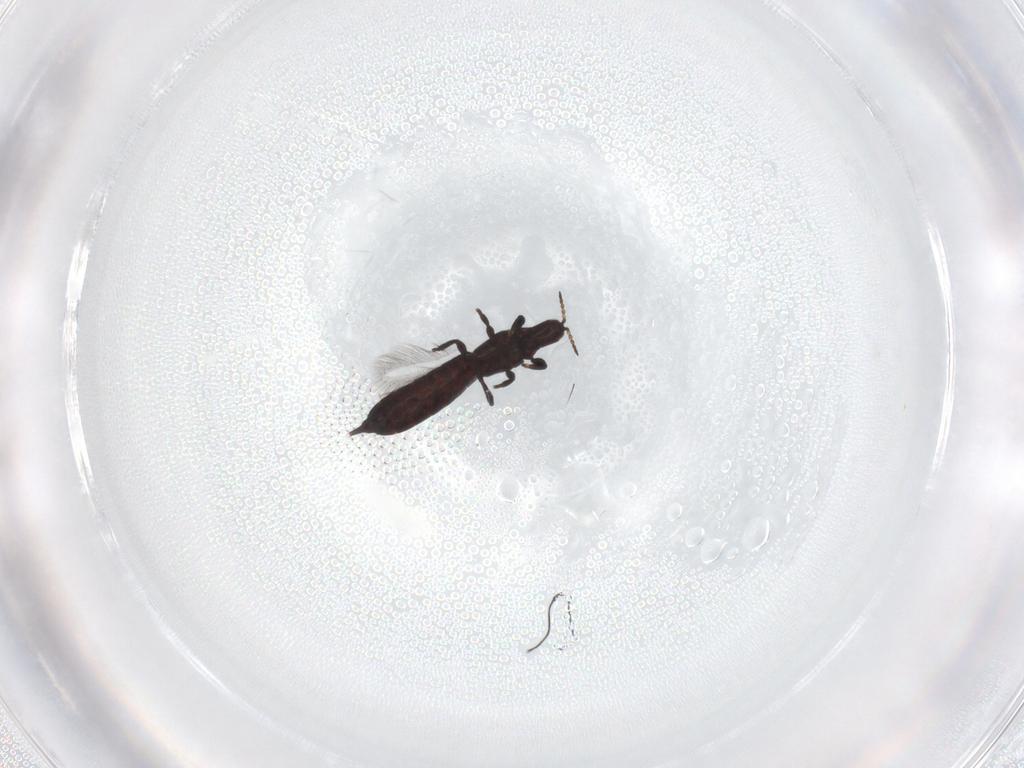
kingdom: Animalia
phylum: Arthropoda
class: Insecta
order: Thysanoptera
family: Phlaeothripidae
